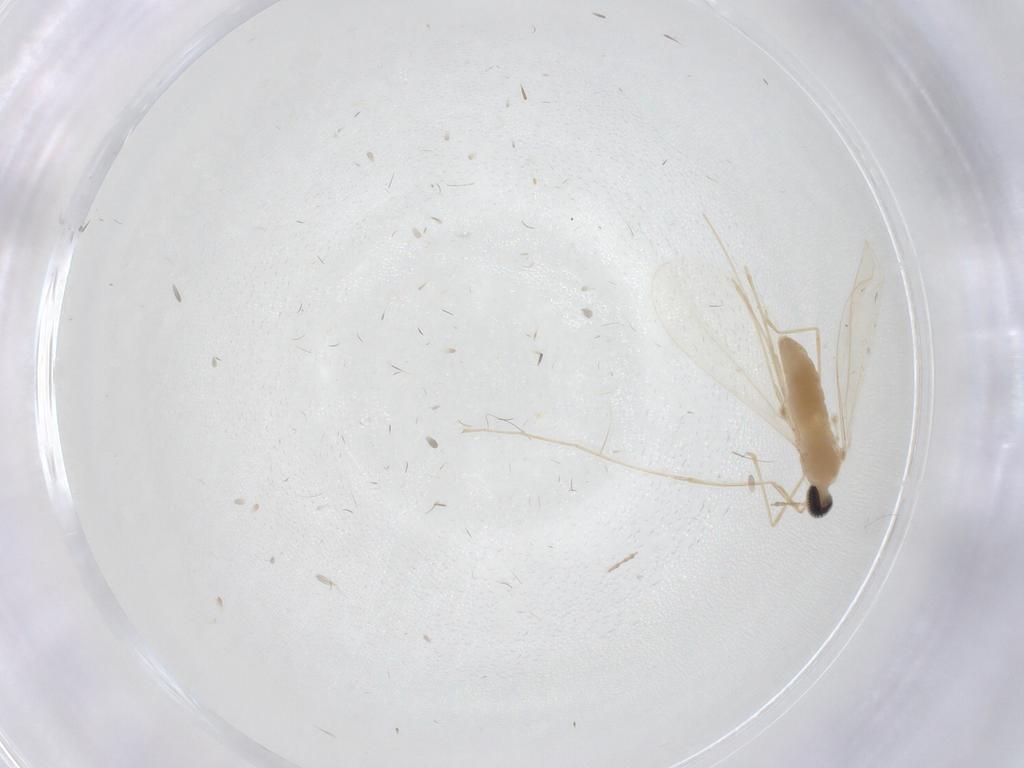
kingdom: Animalia
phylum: Arthropoda
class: Insecta
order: Diptera
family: Cecidomyiidae
